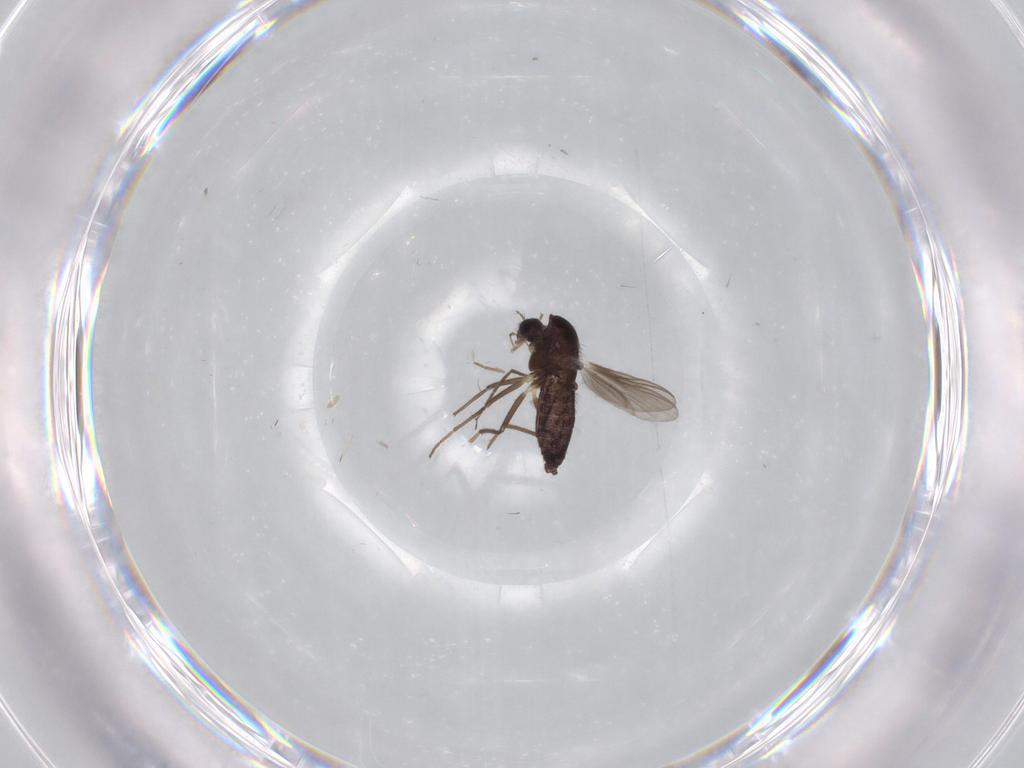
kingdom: Animalia
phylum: Arthropoda
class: Insecta
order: Diptera
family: Chironomidae
